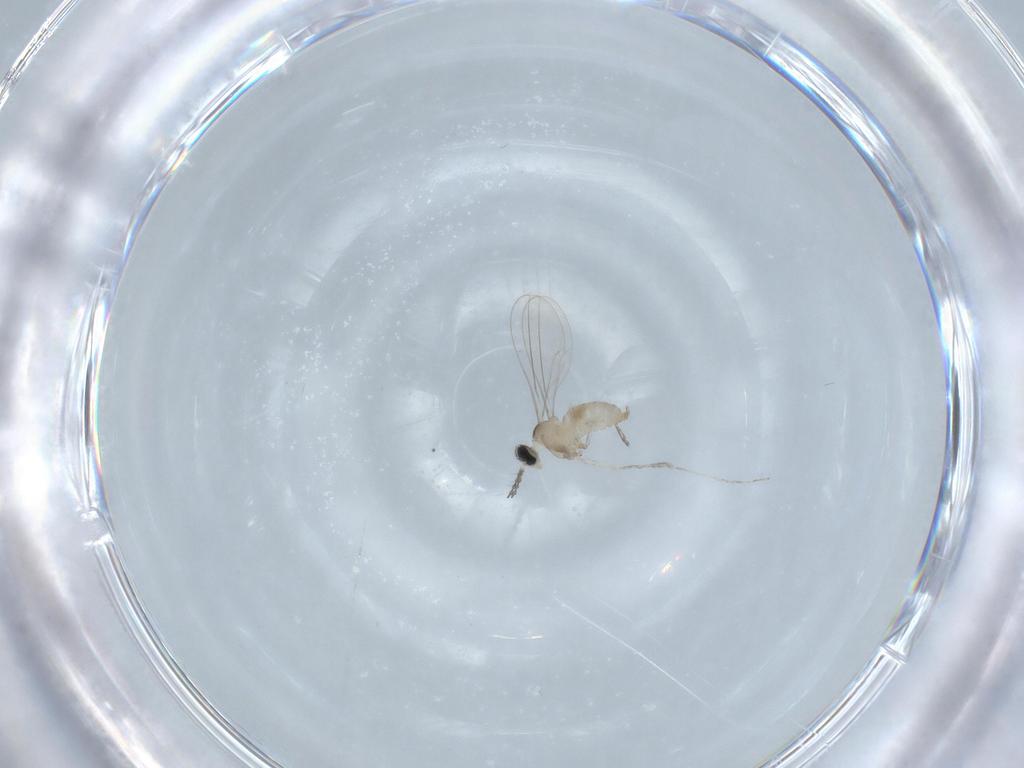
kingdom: Animalia
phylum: Arthropoda
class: Insecta
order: Diptera
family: Cecidomyiidae
